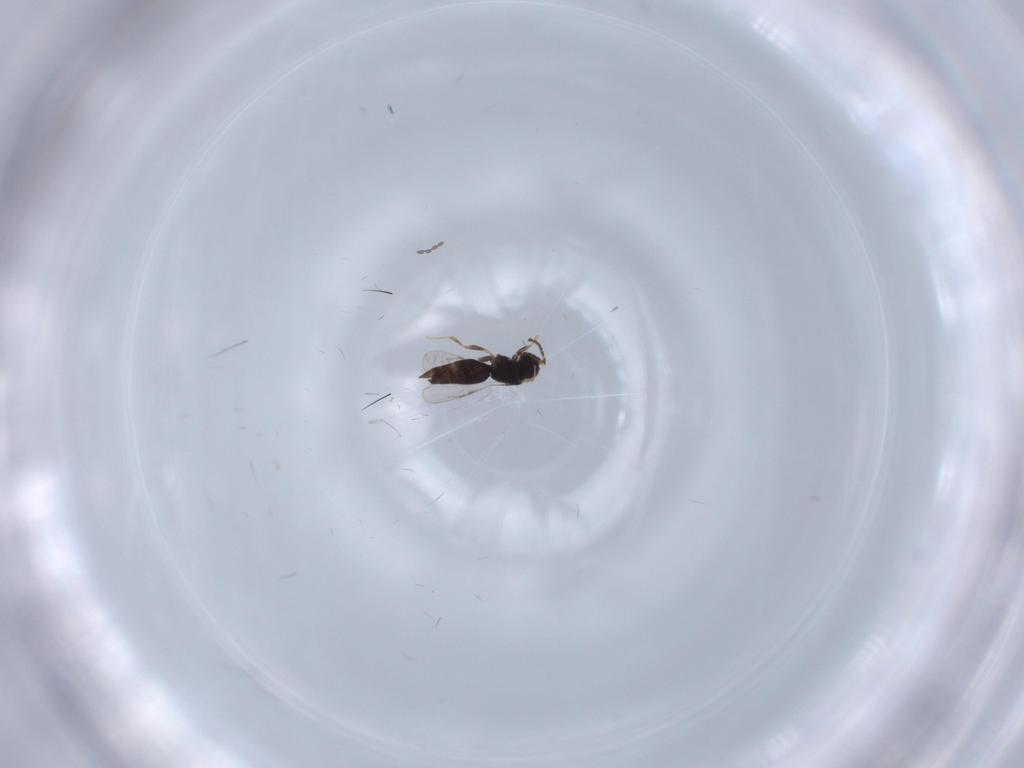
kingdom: Animalia
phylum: Arthropoda
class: Insecta
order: Hymenoptera
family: Ceraphronidae
